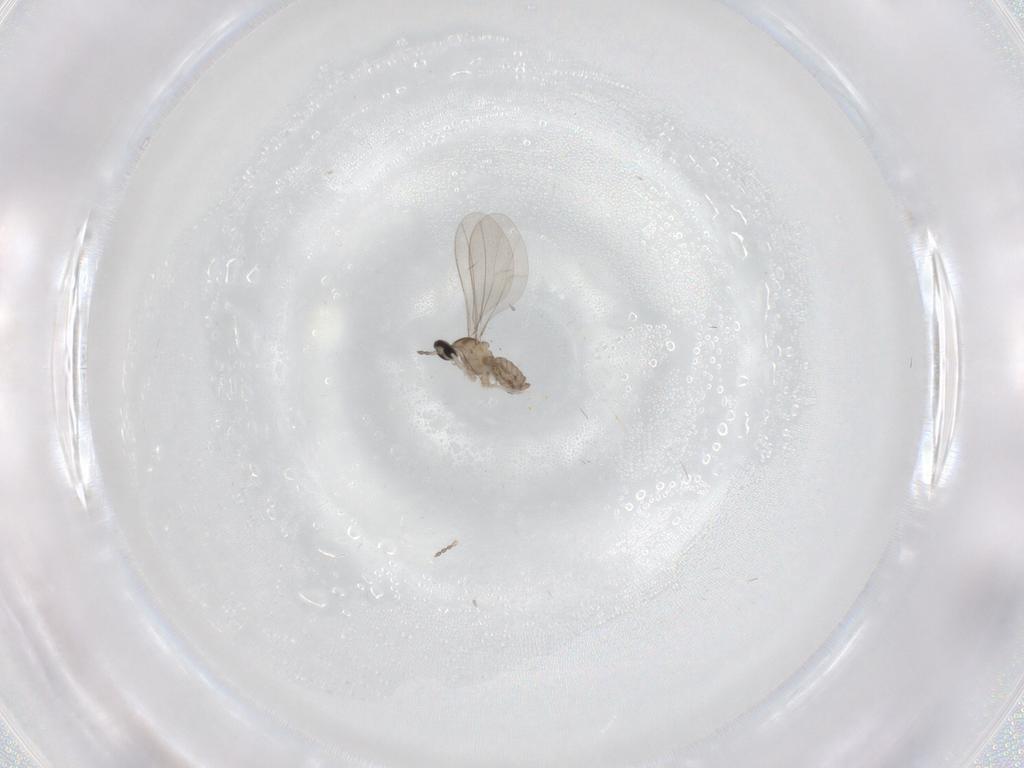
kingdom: Animalia
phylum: Arthropoda
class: Insecta
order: Diptera
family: Cecidomyiidae
